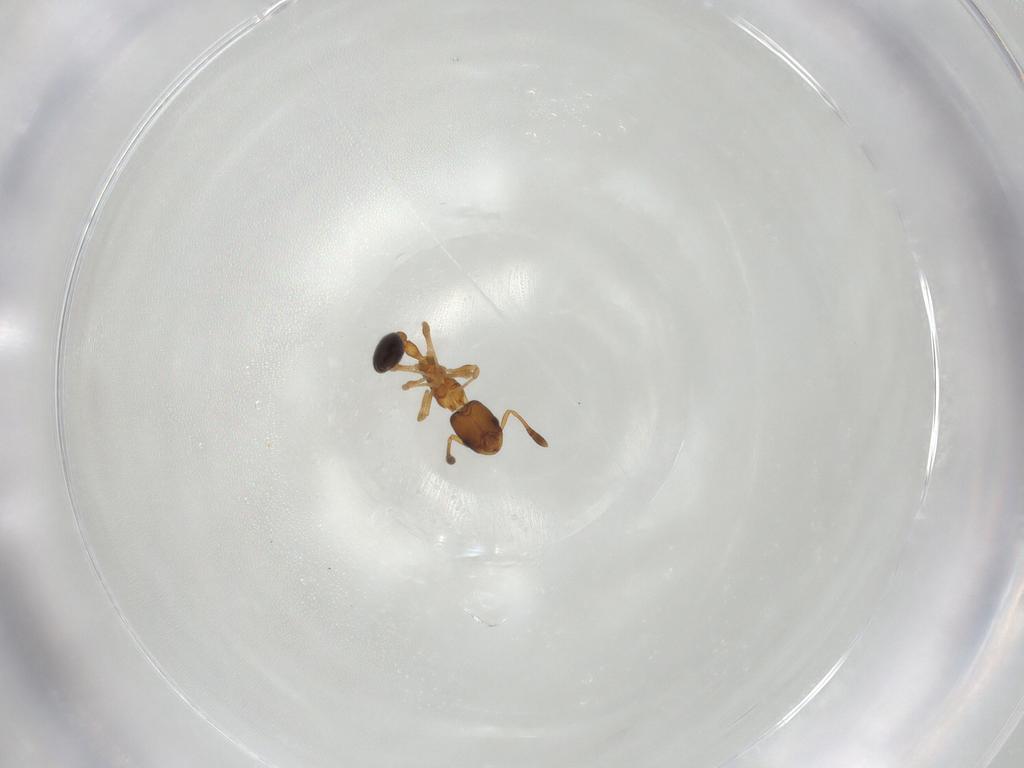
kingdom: Animalia
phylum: Arthropoda
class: Insecta
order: Hymenoptera
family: Formicidae
